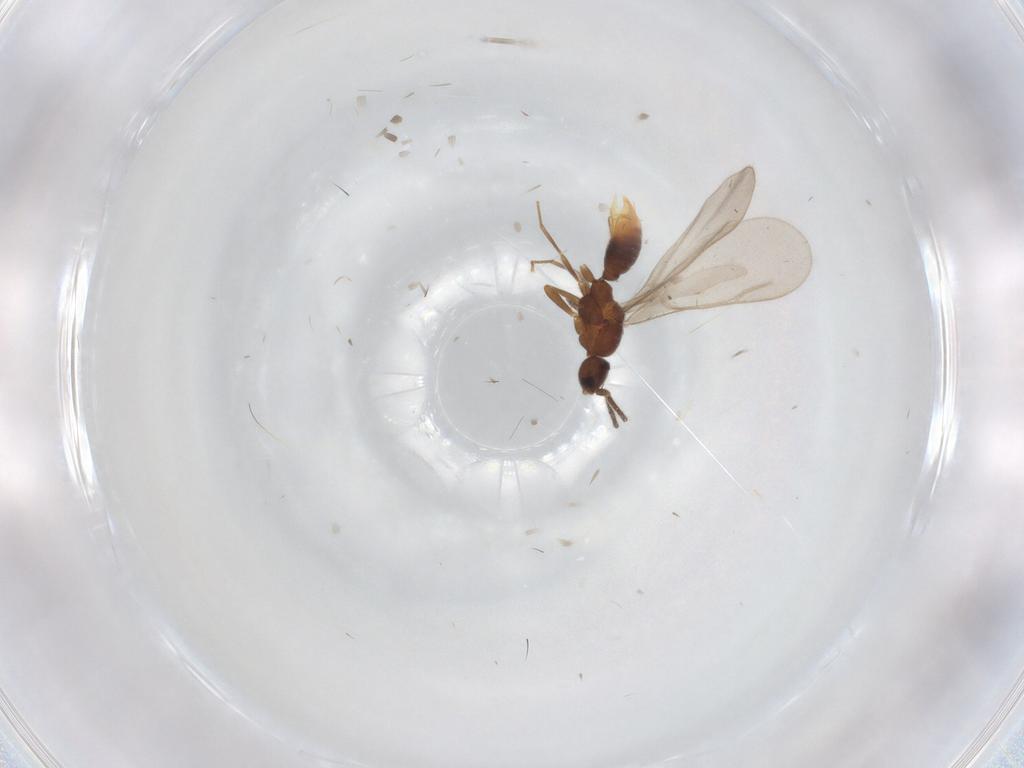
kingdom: Animalia
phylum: Arthropoda
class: Insecta
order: Hymenoptera
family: Formicidae
